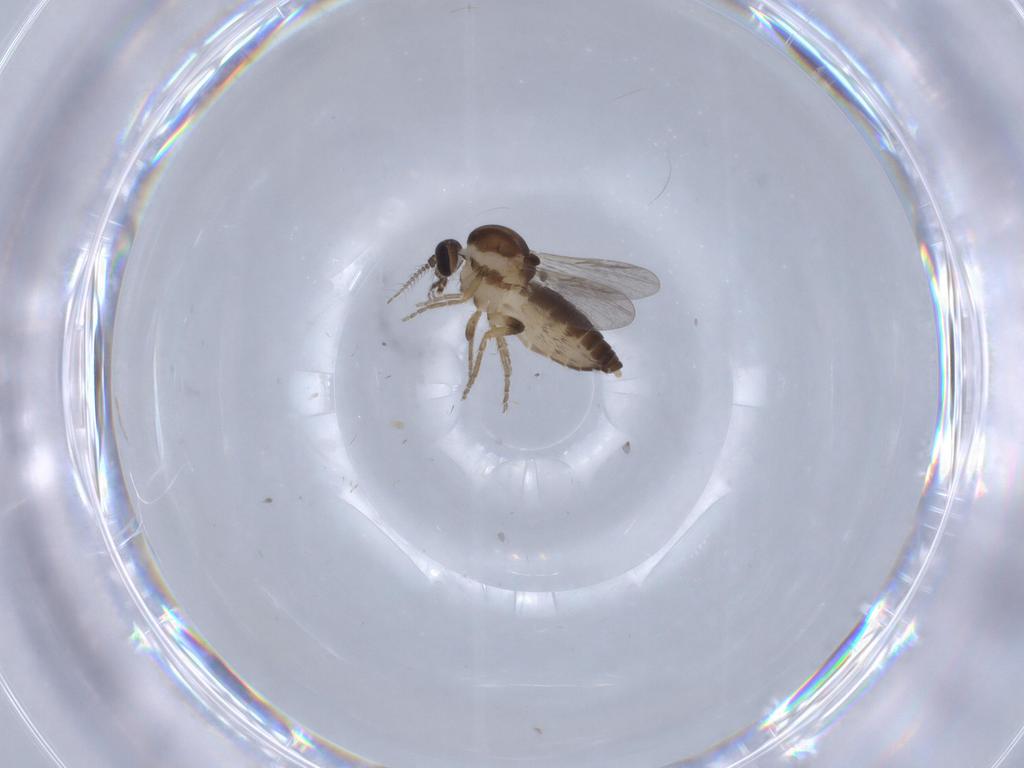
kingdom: Animalia
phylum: Arthropoda
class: Insecta
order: Diptera
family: Ceratopogonidae
